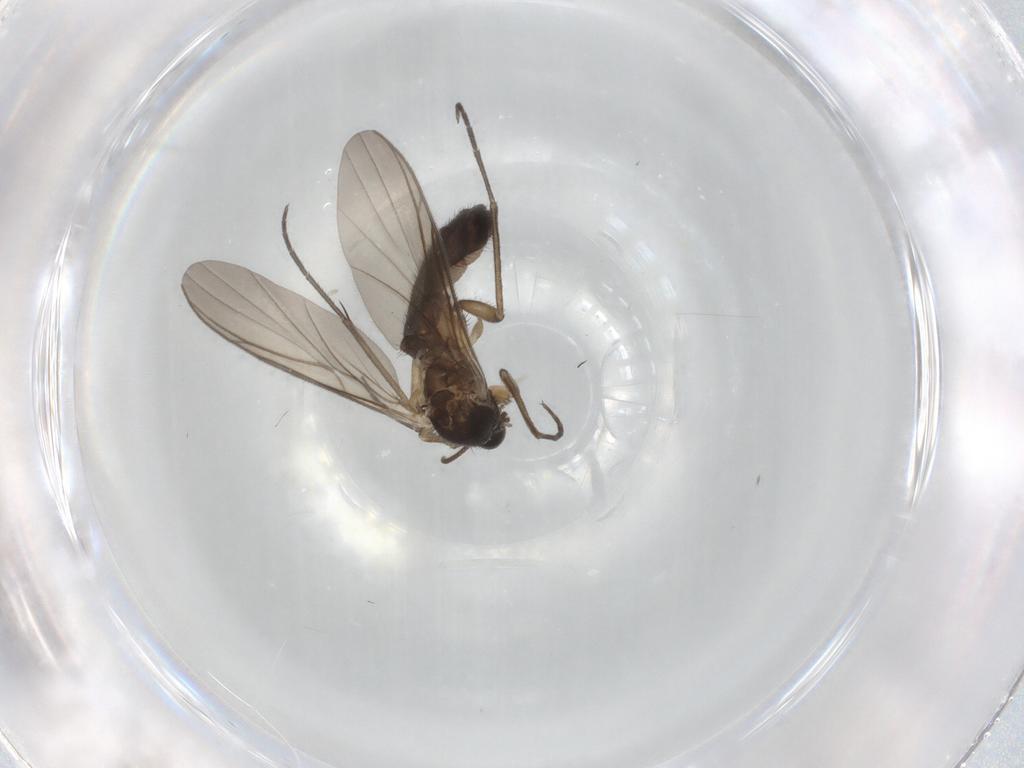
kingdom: Animalia
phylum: Arthropoda
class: Insecta
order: Diptera
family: Keroplatidae
